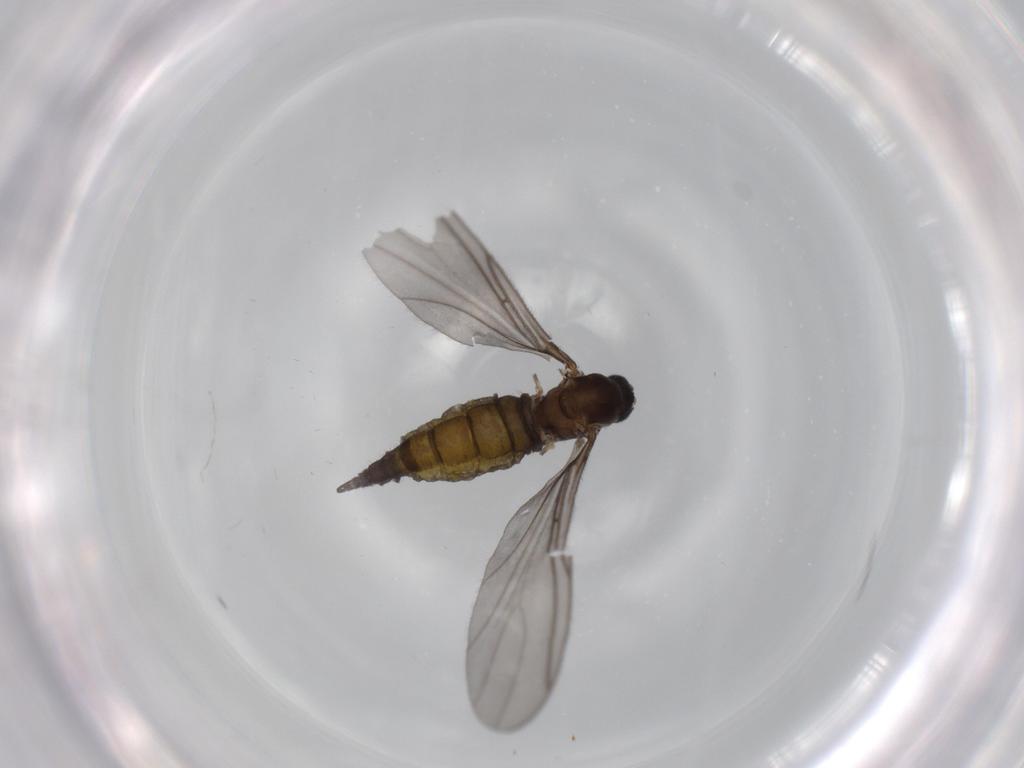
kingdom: Animalia
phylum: Arthropoda
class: Insecta
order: Diptera
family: Sciaridae
